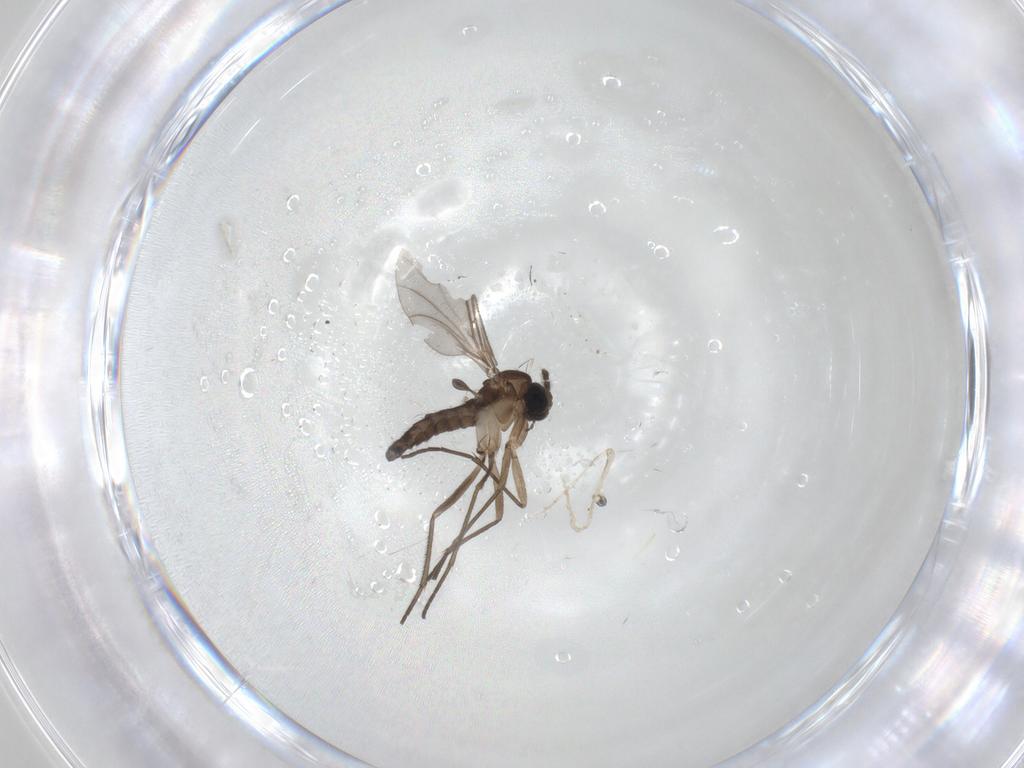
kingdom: Animalia
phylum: Arthropoda
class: Insecta
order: Diptera
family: Sciaridae
